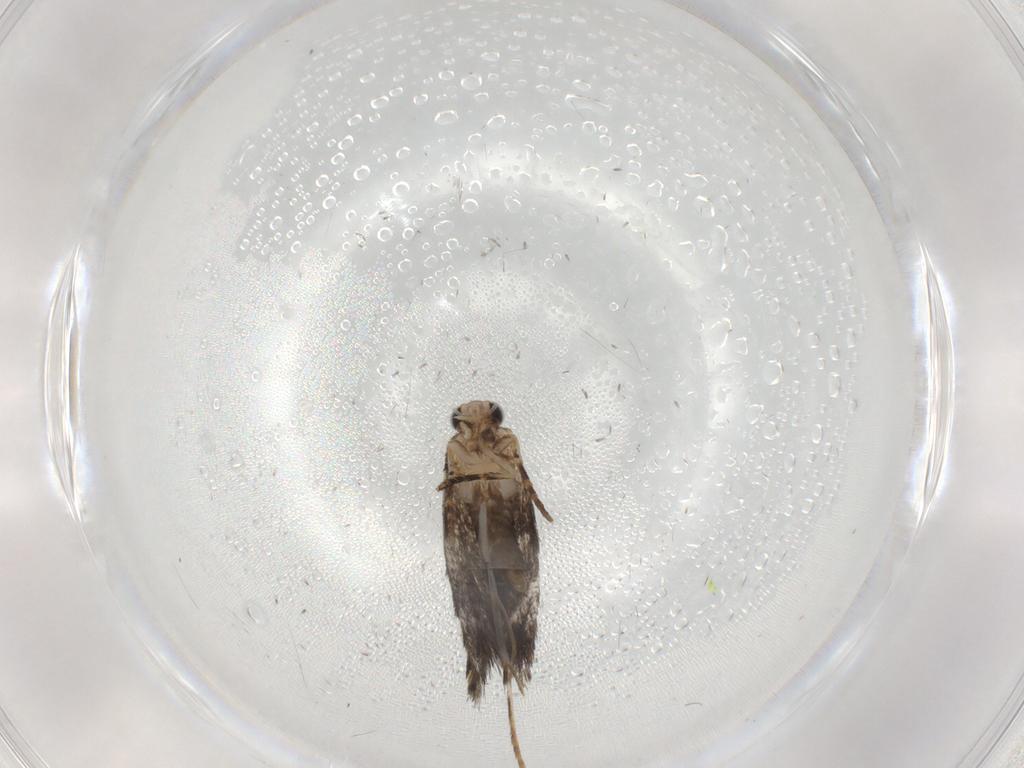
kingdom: Animalia
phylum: Arthropoda
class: Insecta
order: Lepidoptera
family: Tineidae
